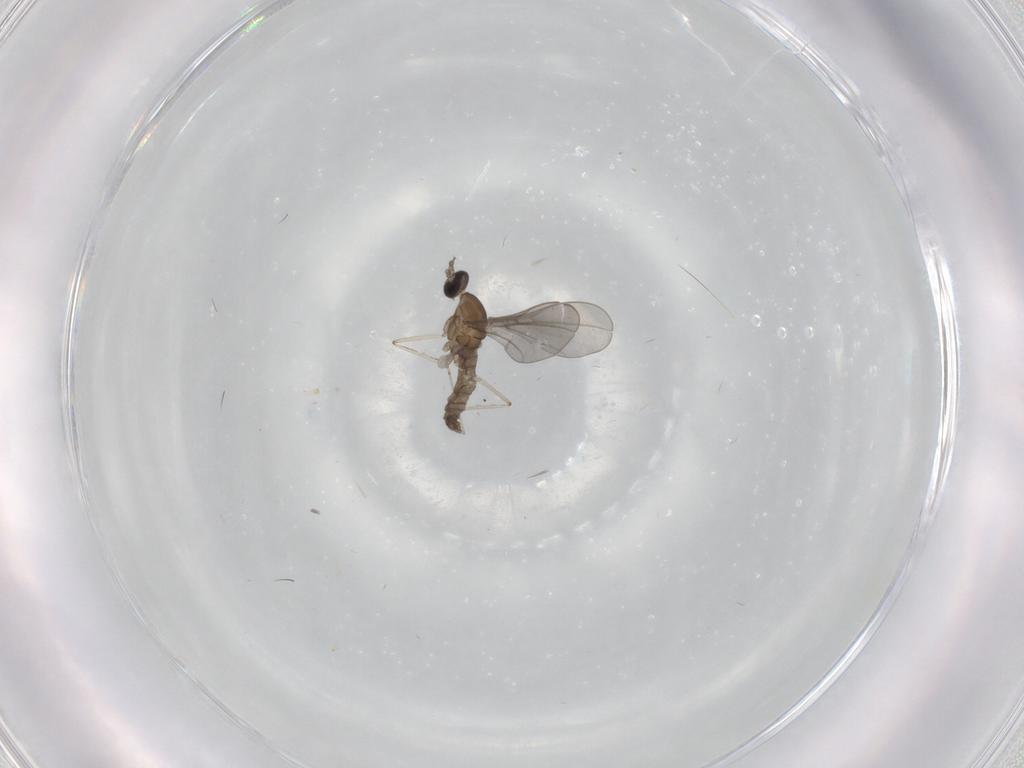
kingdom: Animalia
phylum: Arthropoda
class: Insecta
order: Diptera
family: Cecidomyiidae
